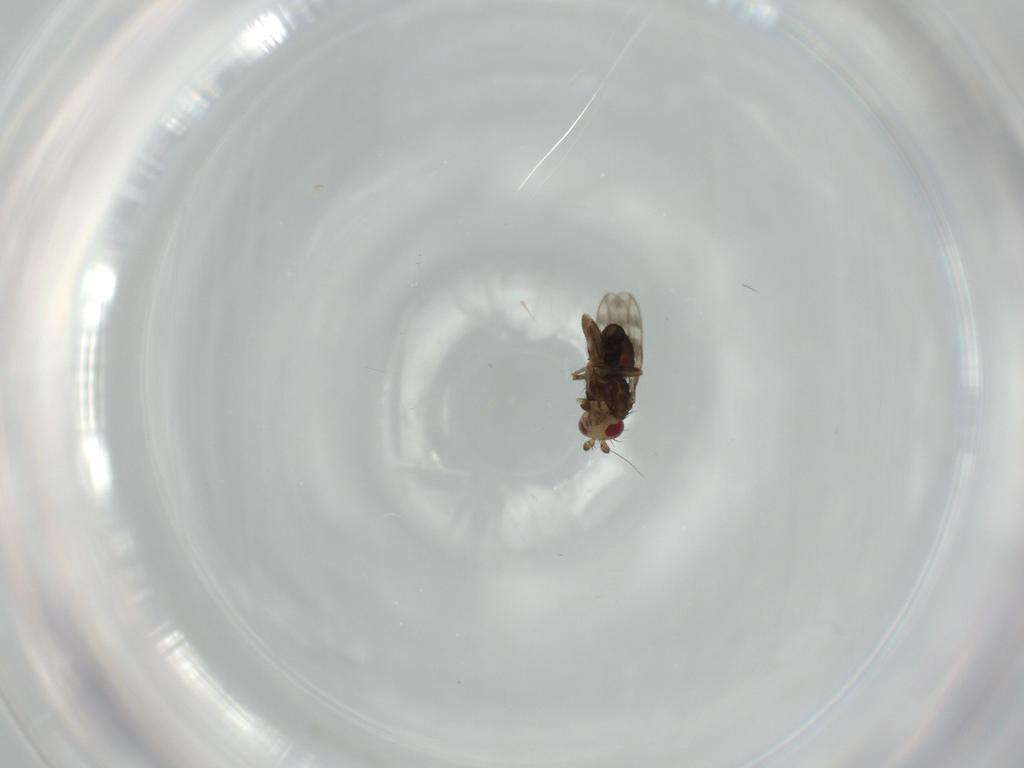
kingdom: Animalia
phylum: Arthropoda
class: Insecta
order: Diptera
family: Sphaeroceridae
